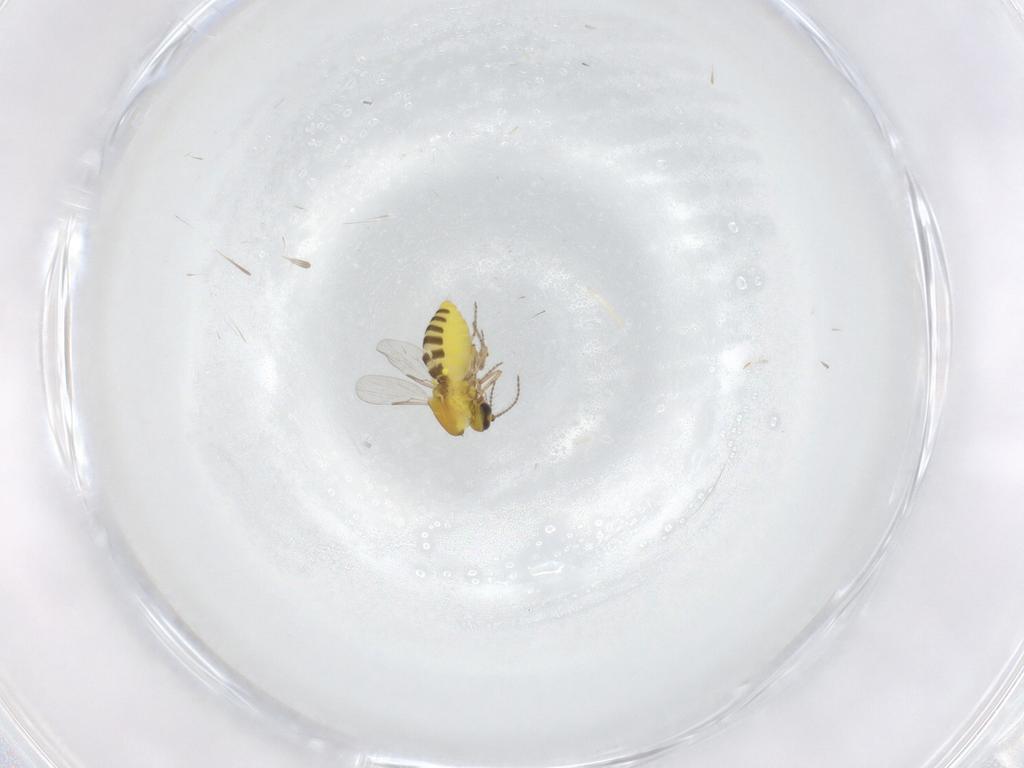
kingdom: Animalia
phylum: Arthropoda
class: Insecta
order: Diptera
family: Ceratopogonidae
